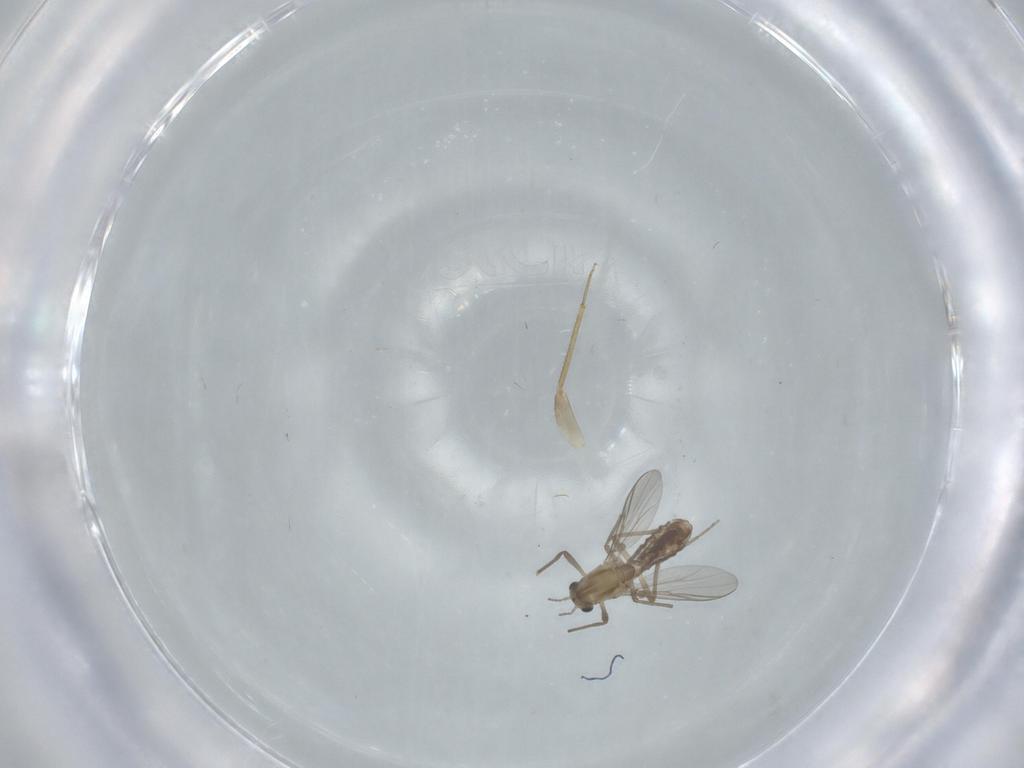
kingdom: Animalia
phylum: Arthropoda
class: Insecta
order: Diptera
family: Chironomidae
